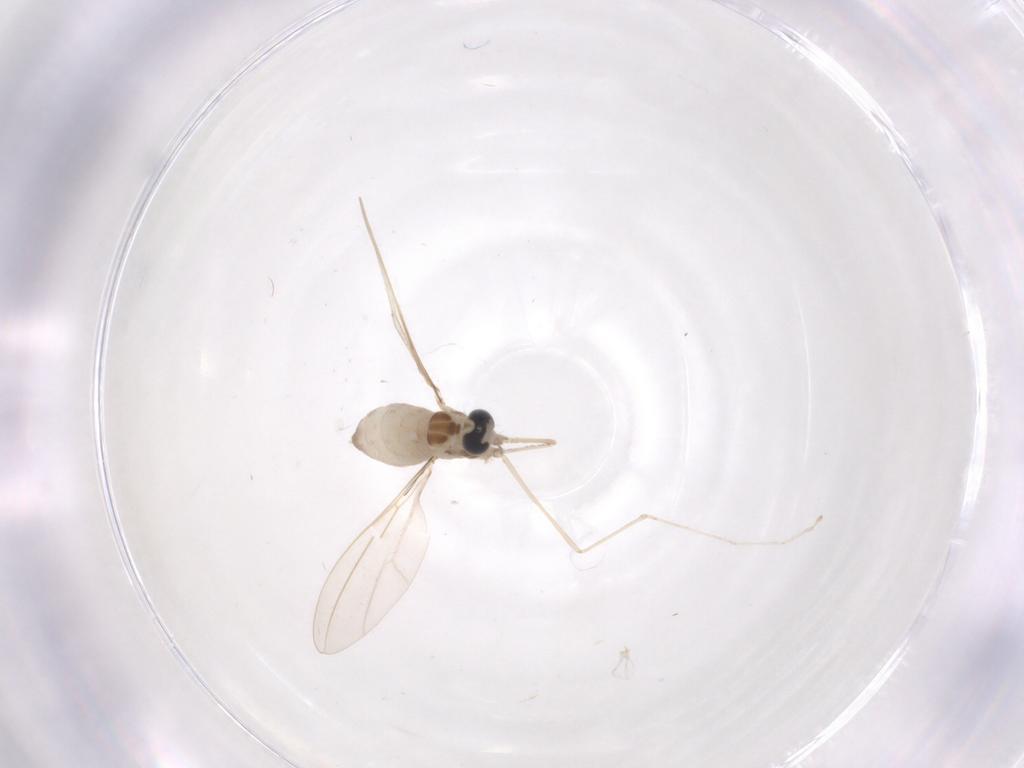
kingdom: Animalia
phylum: Arthropoda
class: Insecta
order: Diptera
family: Cecidomyiidae
